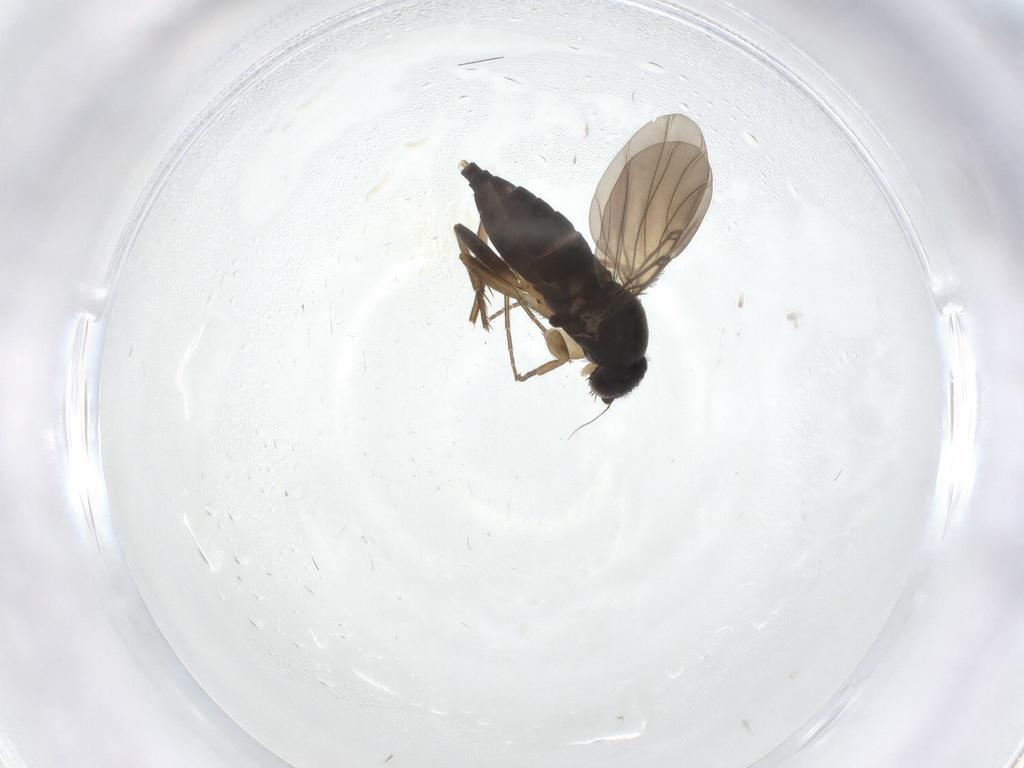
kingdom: Animalia
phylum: Arthropoda
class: Insecta
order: Diptera
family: Phoridae
